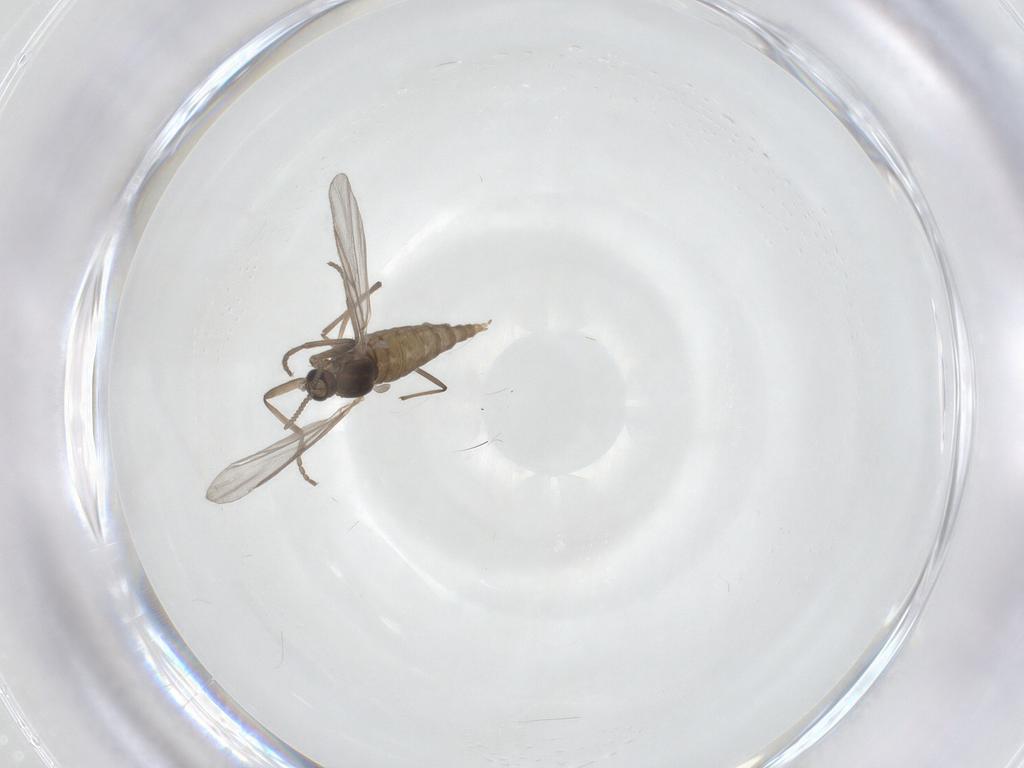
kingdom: Animalia
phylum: Arthropoda
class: Insecta
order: Diptera
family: Cecidomyiidae
